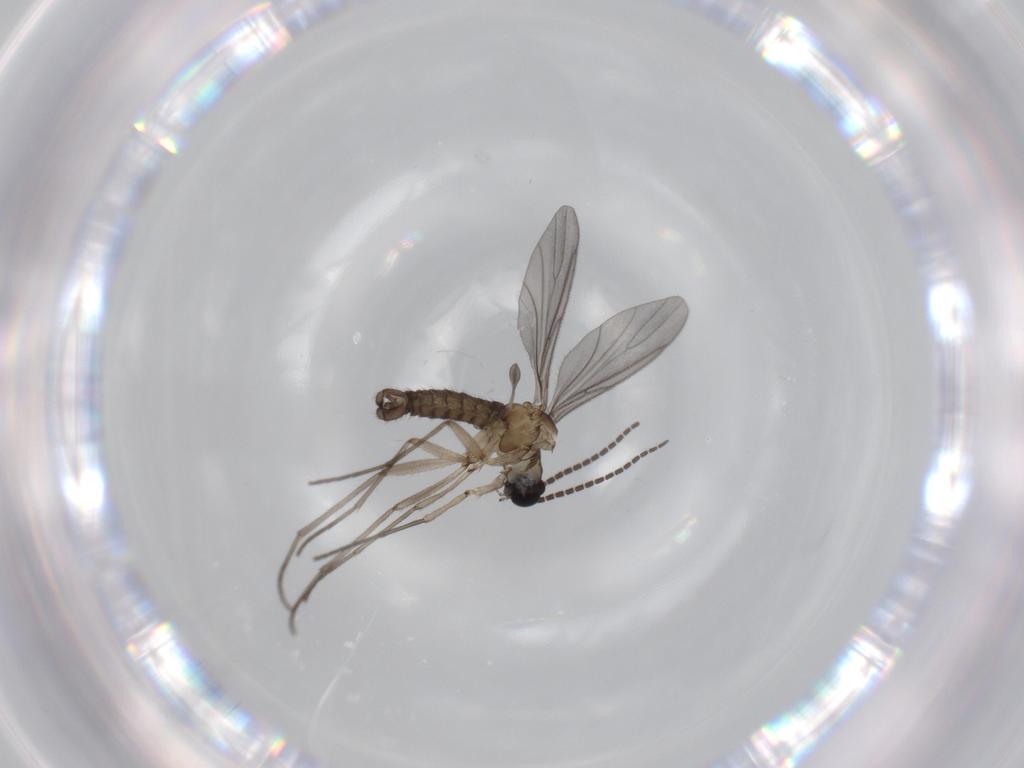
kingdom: Animalia
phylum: Arthropoda
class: Insecta
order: Diptera
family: Sciaridae
